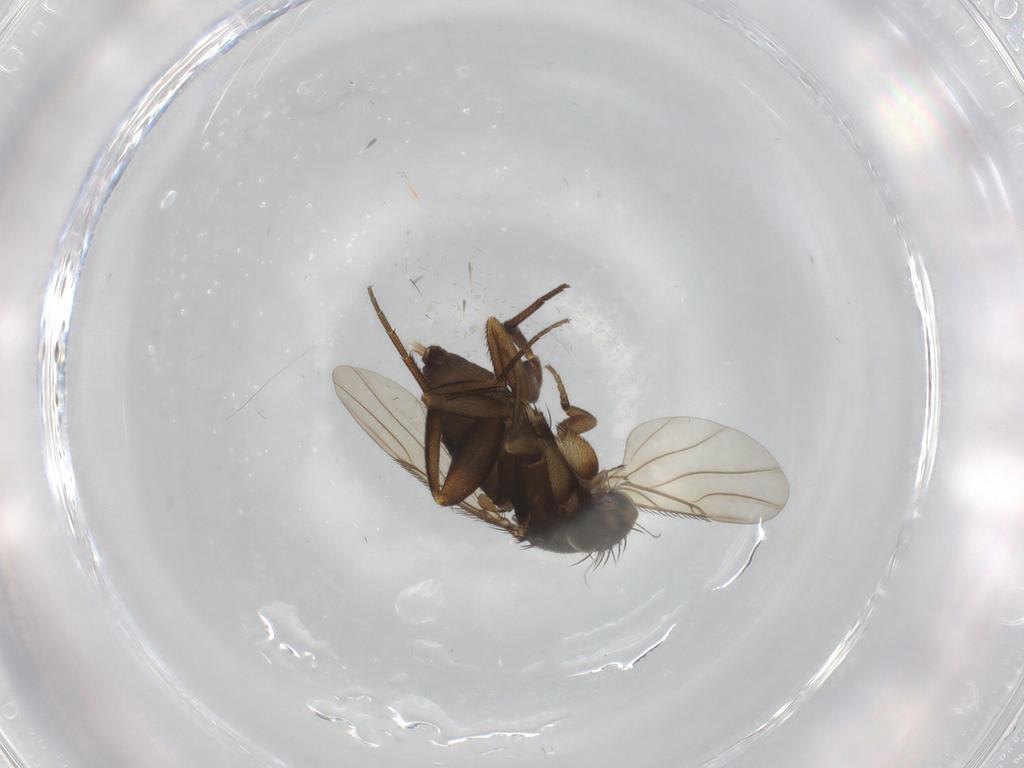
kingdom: Animalia
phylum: Arthropoda
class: Insecta
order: Diptera
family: Phoridae
